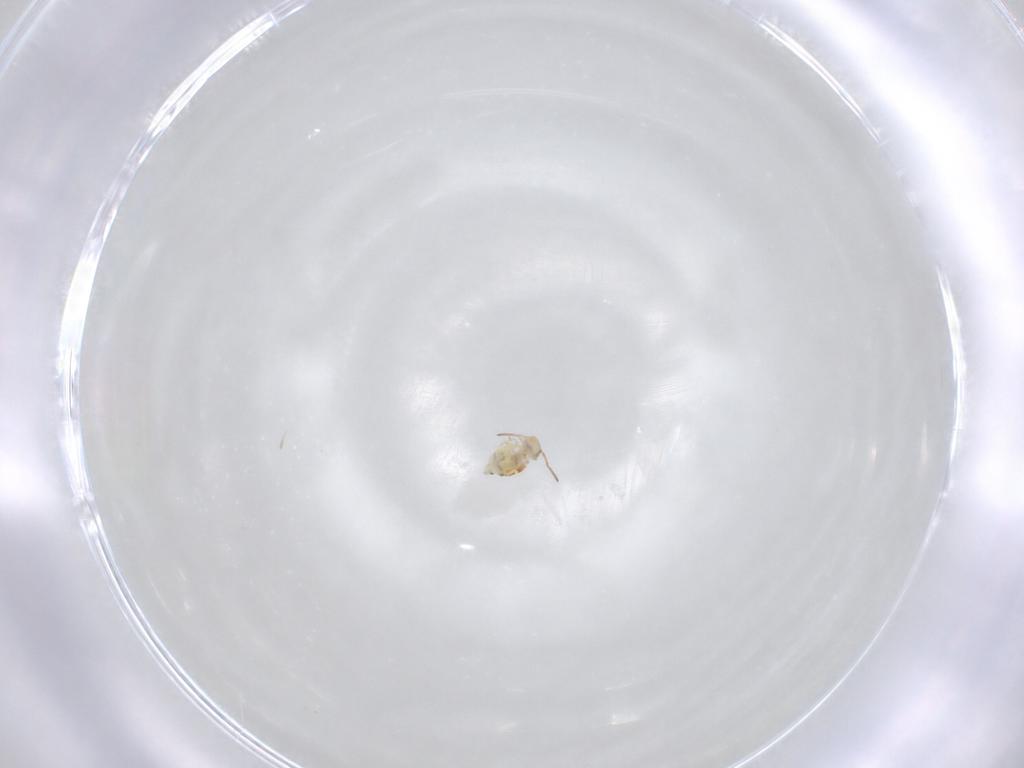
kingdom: Animalia
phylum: Arthropoda
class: Collembola
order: Symphypleona
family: Bourletiellidae
